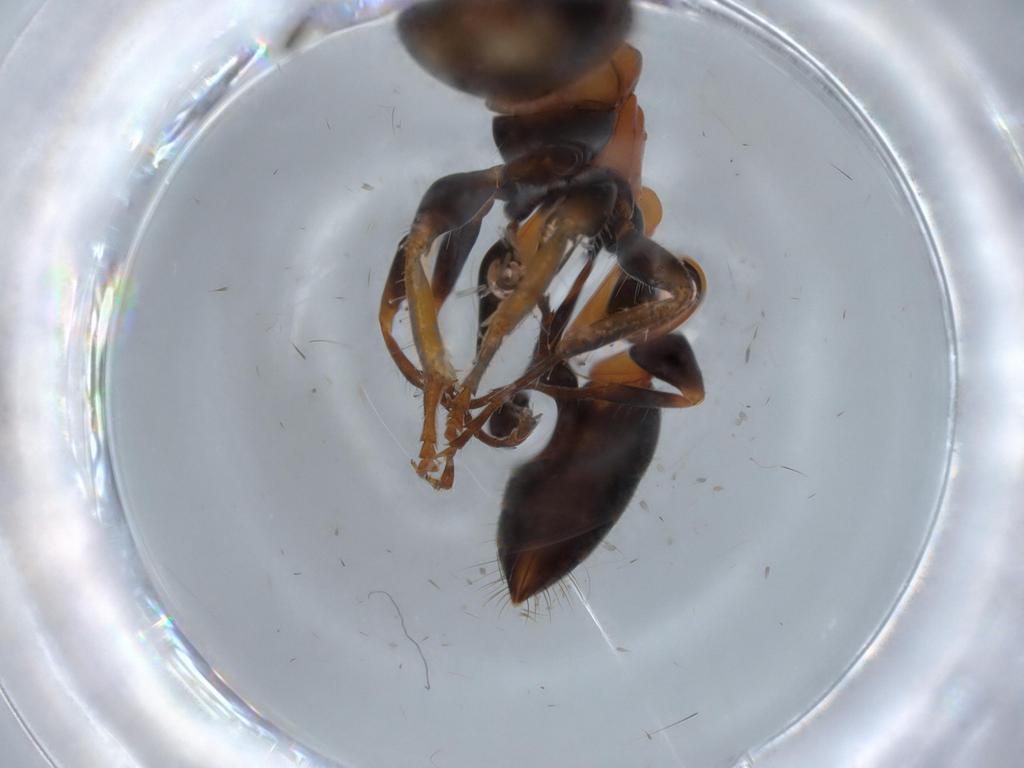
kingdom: Animalia
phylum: Arthropoda
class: Insecta
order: Hymenoptera
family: Formicidae
